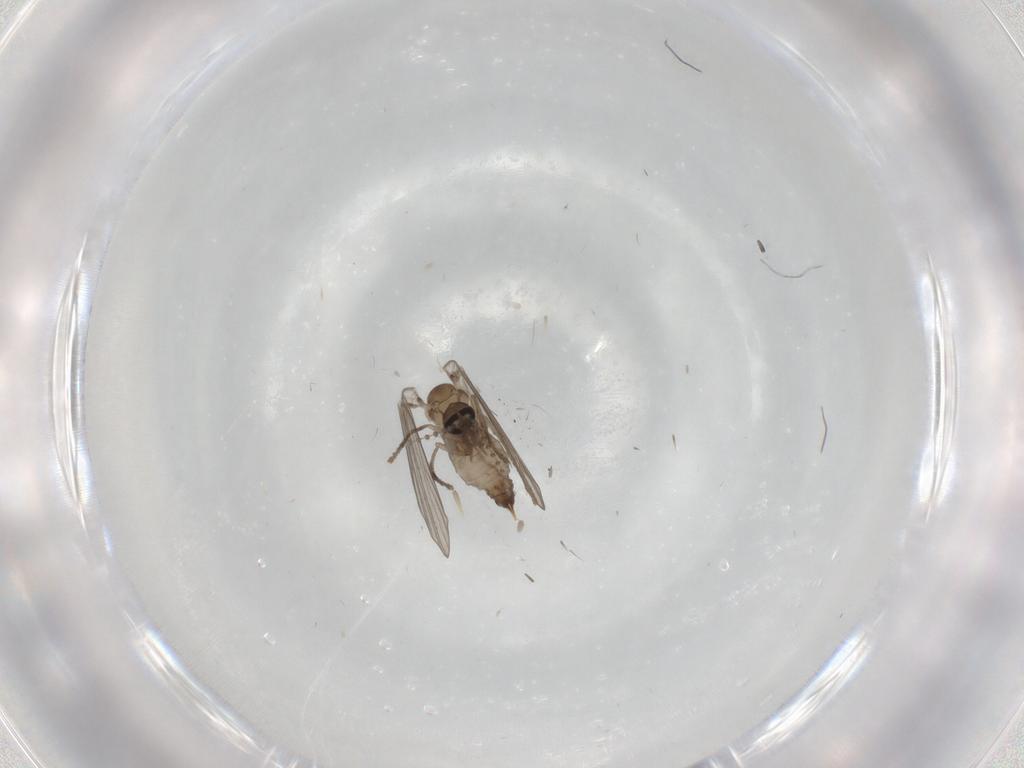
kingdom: Animalia
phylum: Arthropoda
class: Insecta
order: Diptera
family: Psychodidae
